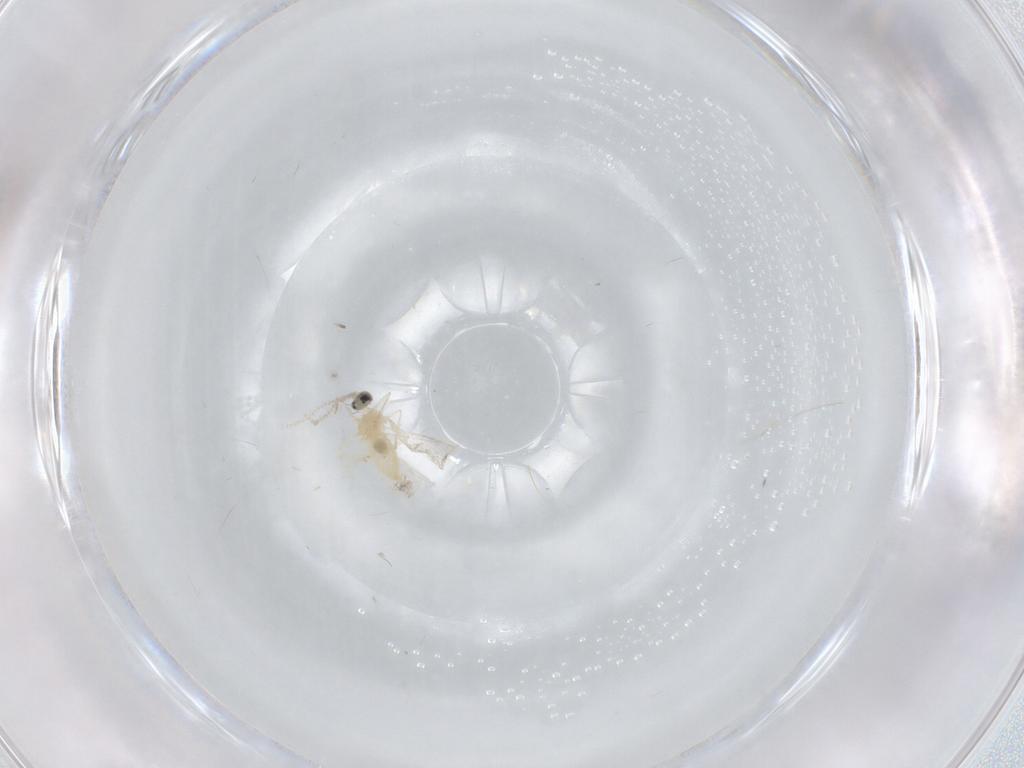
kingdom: Animalia
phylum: Arthropoda
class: Insecta
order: Diptera
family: Cecidomyiidae
